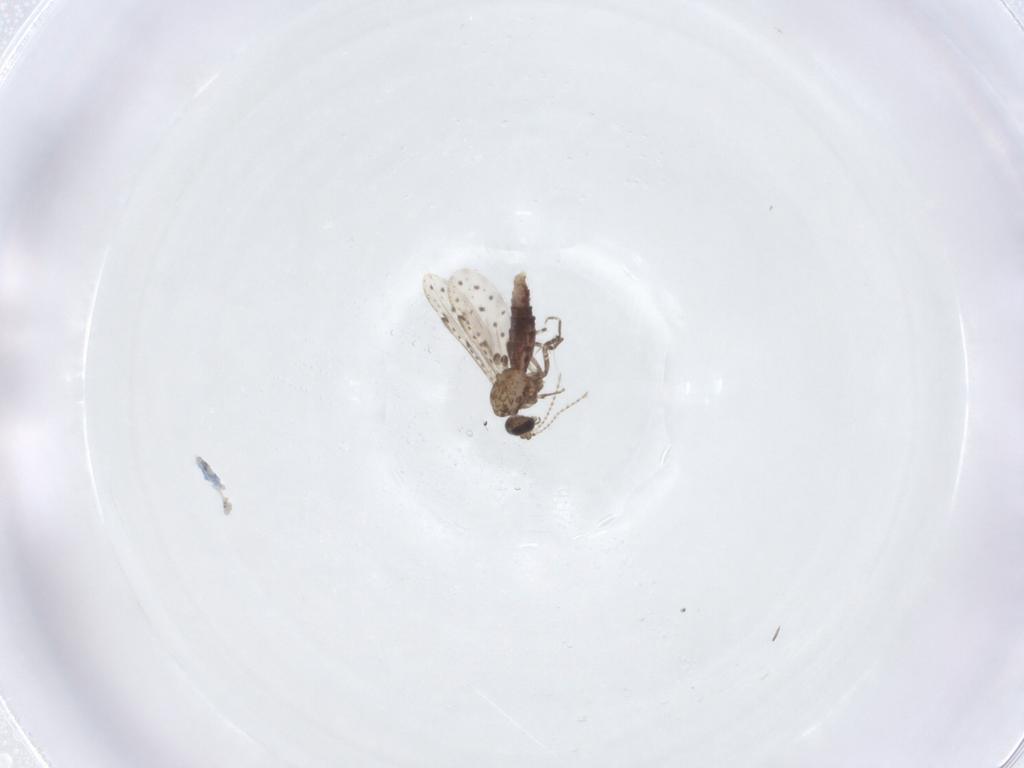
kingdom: Animalia
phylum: Arthropoda
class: Insecta
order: Diptera
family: Ceratopogonidae
